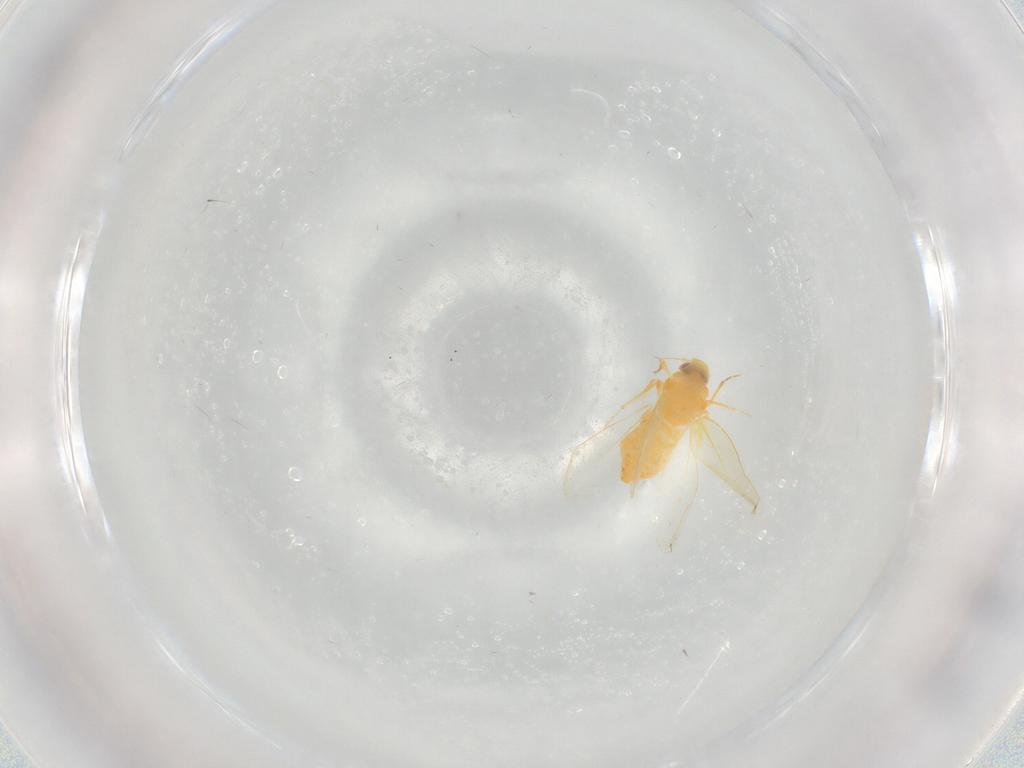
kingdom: Animalia
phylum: Arthropoda
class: Insecta
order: Hemiptera
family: Aleyrodidae
